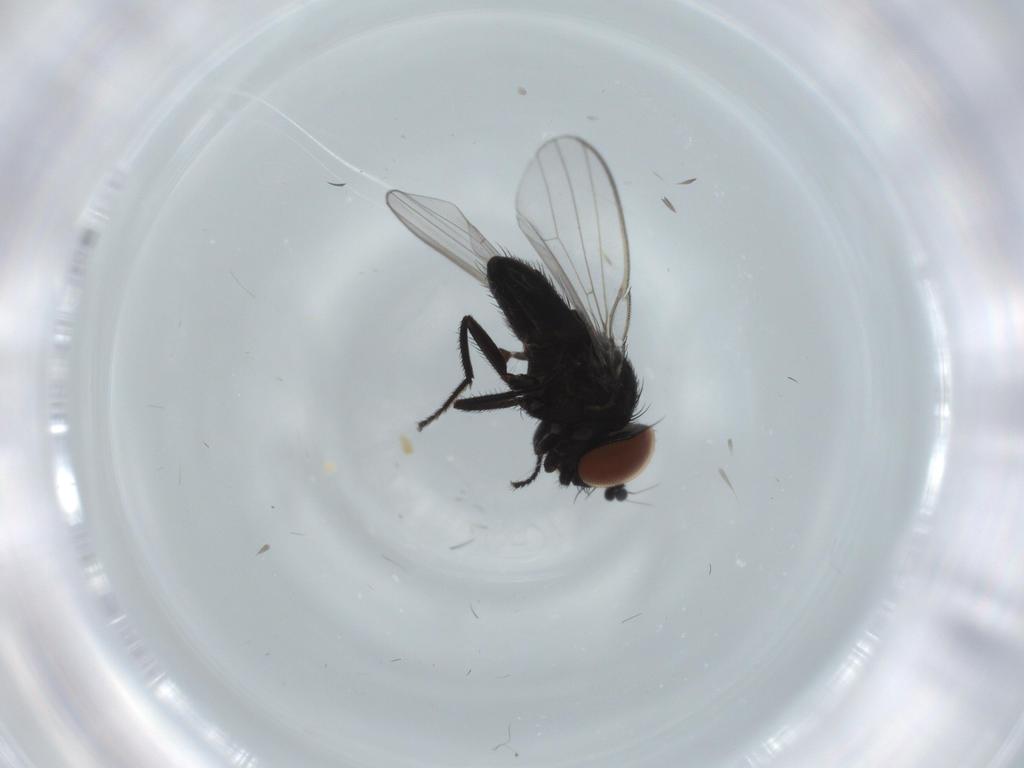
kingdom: Animalia
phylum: Arthropoda
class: Insecta
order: Diptera
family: Milichiidae
